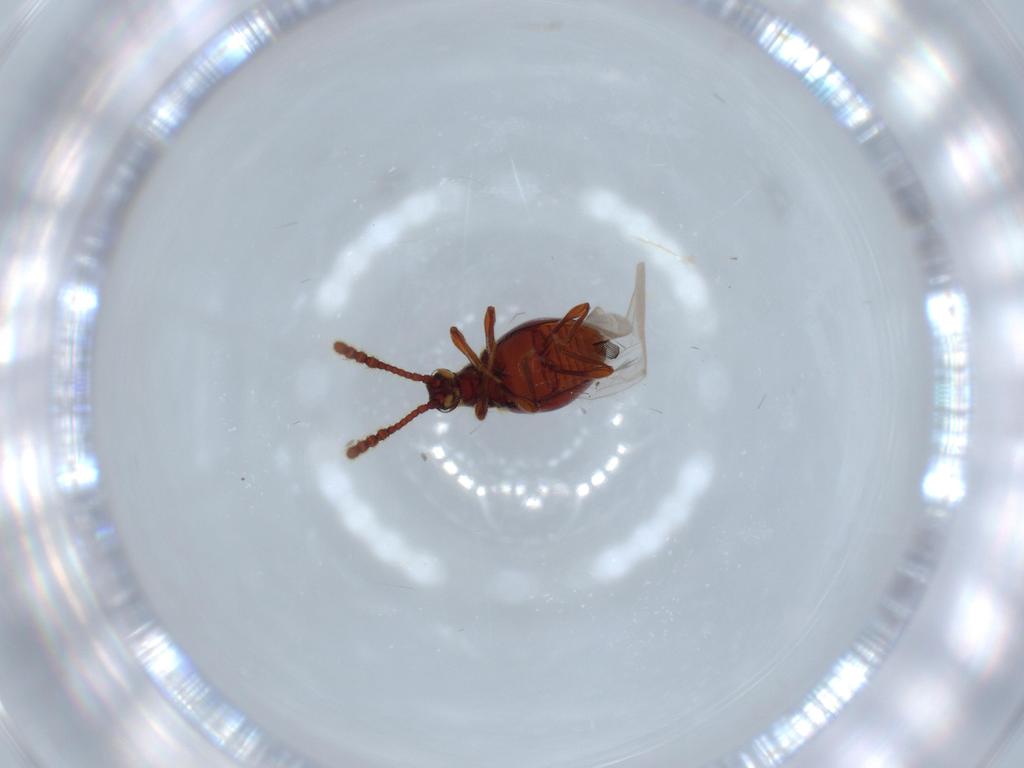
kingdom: Animalia
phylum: Arthropoda
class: Insecta
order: Coleoptera
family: Staphylinidae
